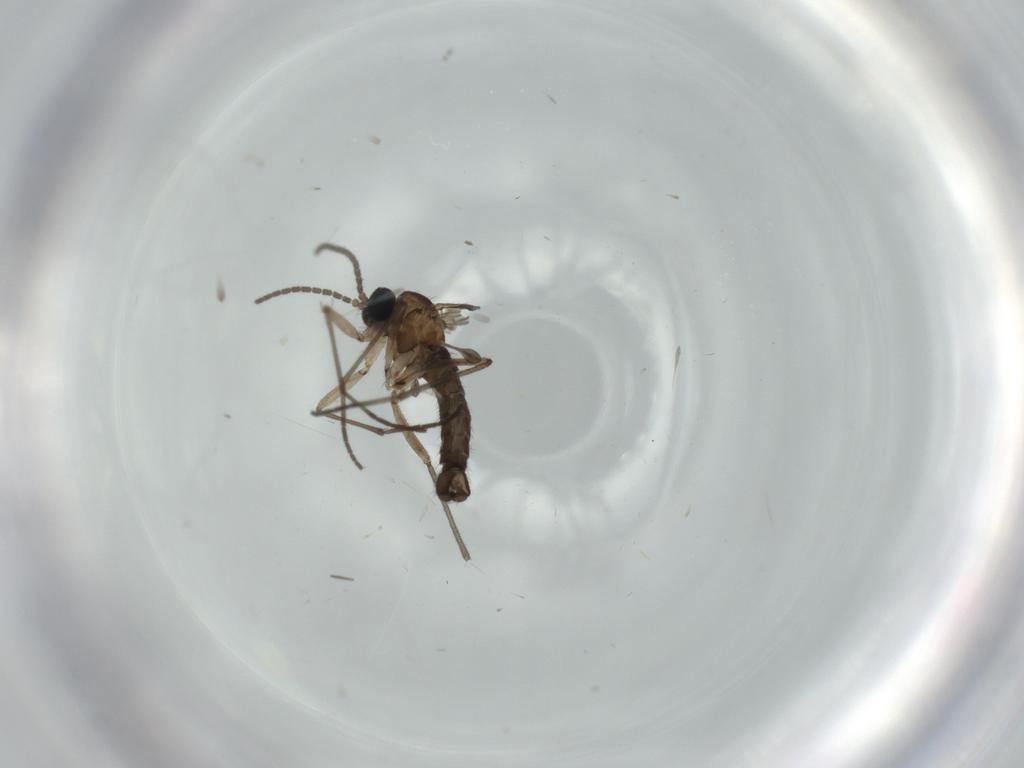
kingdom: Animalia
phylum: Arthropoda
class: Insecta
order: Diptera
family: Sciaridae
